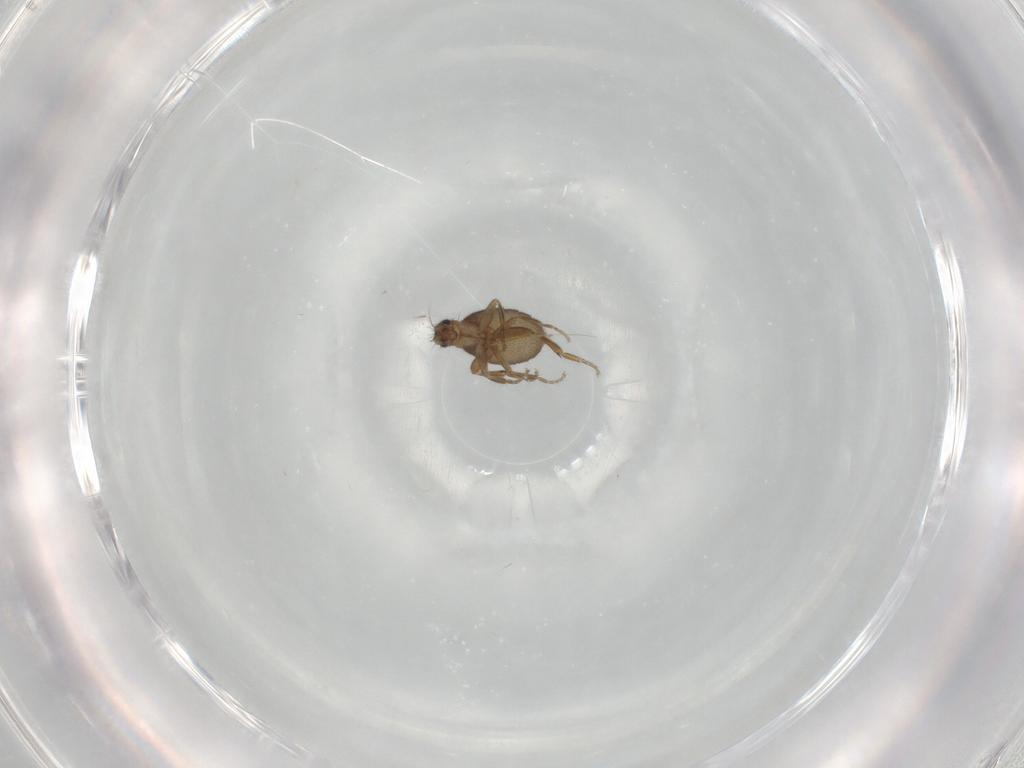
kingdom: Animalia
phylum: Arthropoda
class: Insecta
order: Diptera
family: Phoridae
